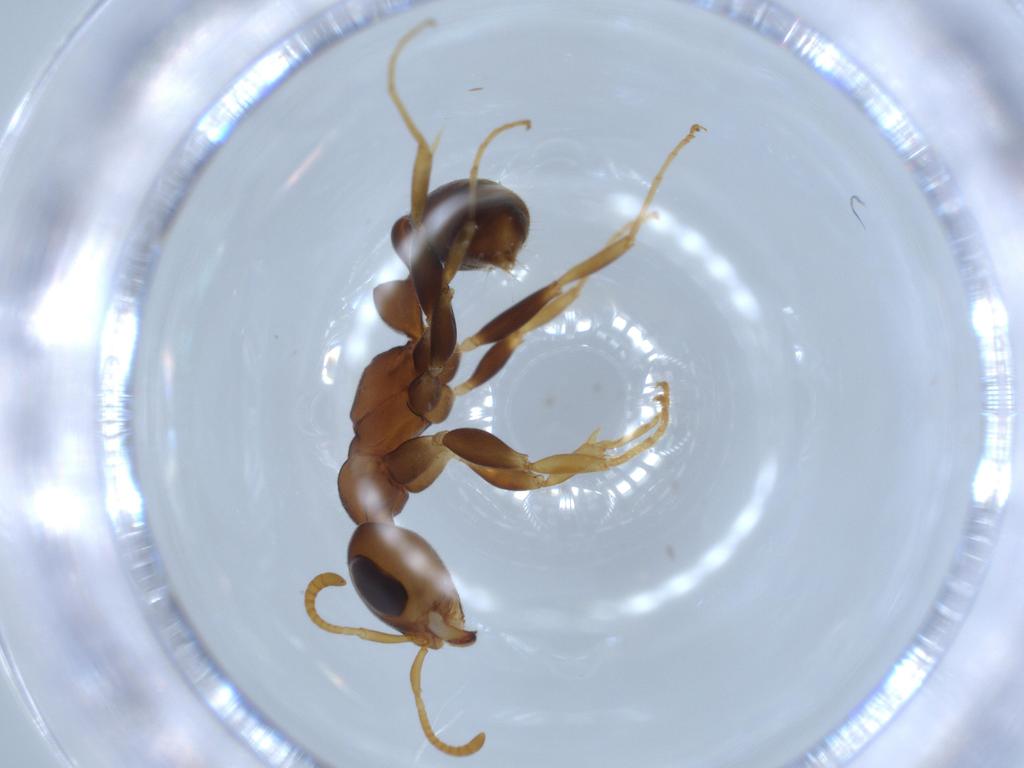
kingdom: Animalia
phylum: Arthropoda
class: Insecta
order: Hymenoptera
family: Formicidae
